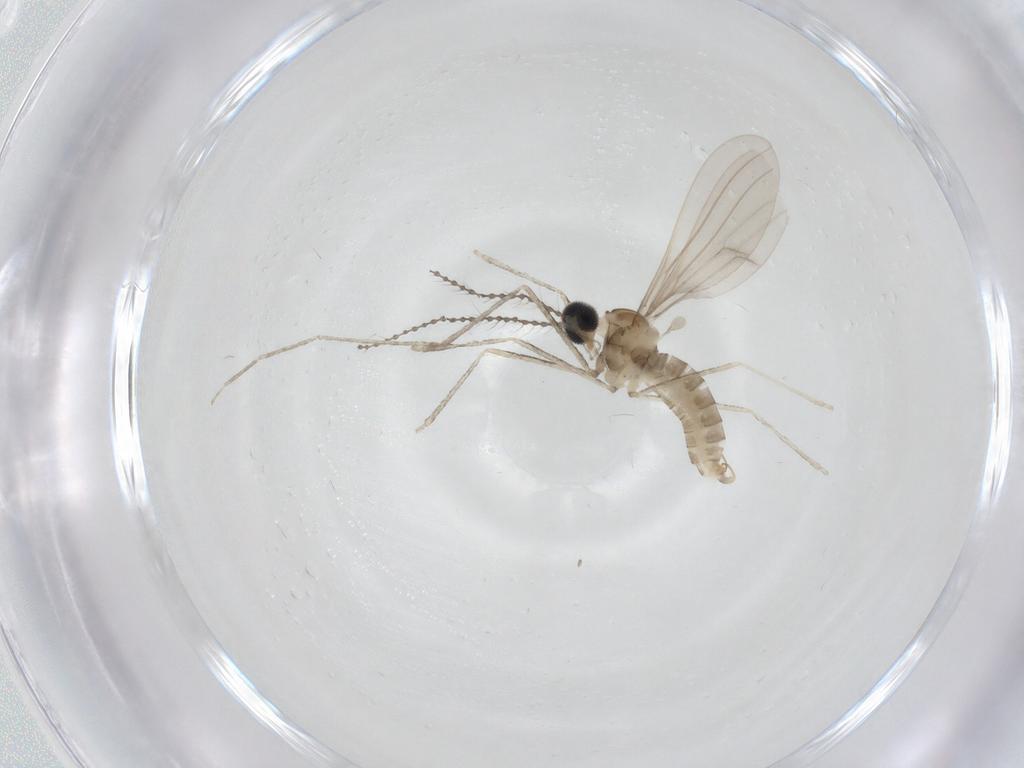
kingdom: Animalia
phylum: Arthropoda
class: Insecta
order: Diptera
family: Cecidomyiidae
